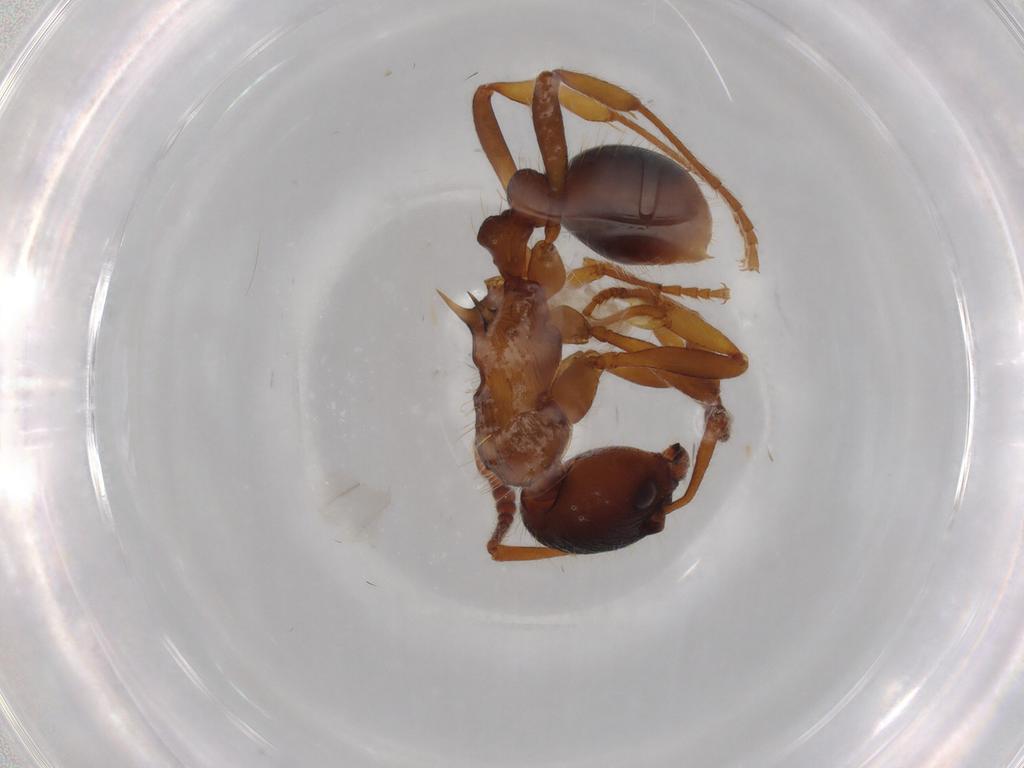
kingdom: Animalia
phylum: Arthropoda
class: Insecta
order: Hymenoptera
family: Formicidae
